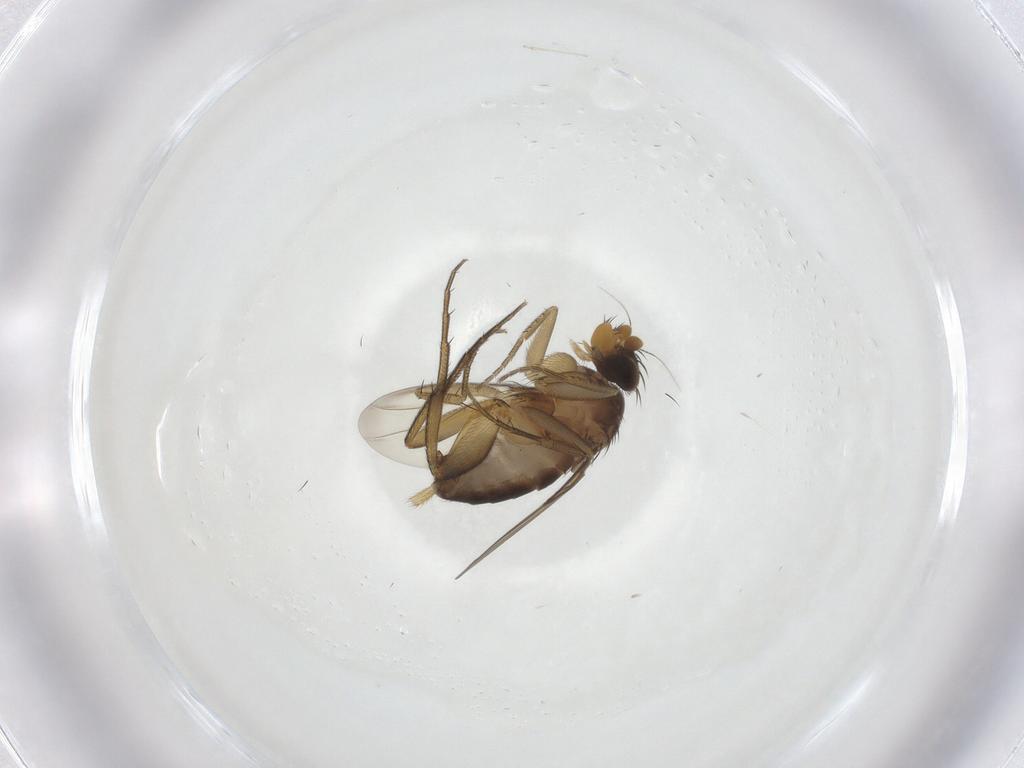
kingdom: Animalia
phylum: Arthropoda
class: Insecta
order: Diptera
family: Phoridae
